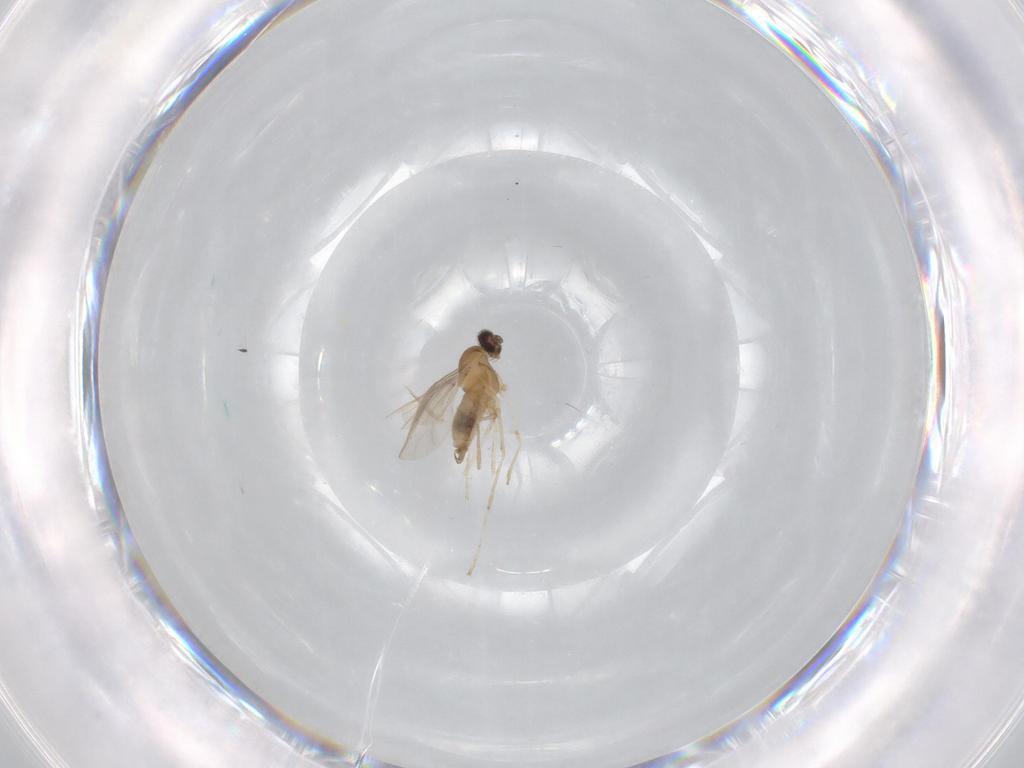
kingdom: Animalia
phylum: Arthropoda
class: Insecta
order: Diptera
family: Cecidomyiidae
